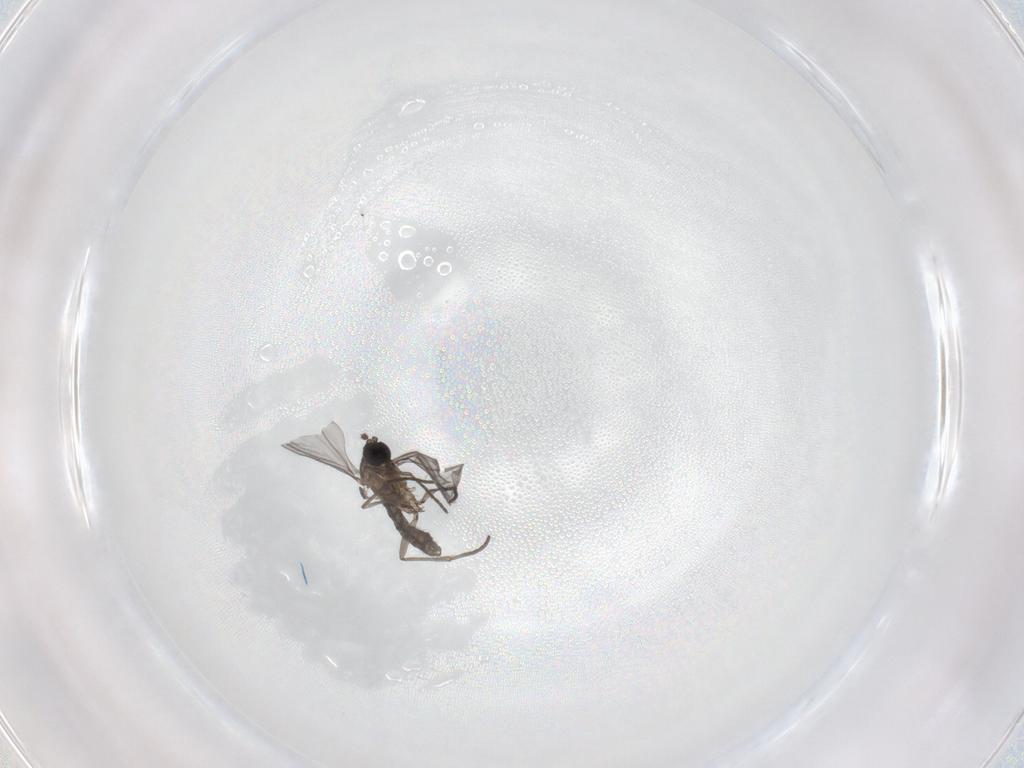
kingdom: Animalia
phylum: Arthropoda
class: Insecta
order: Diptera
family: Chironomidae
